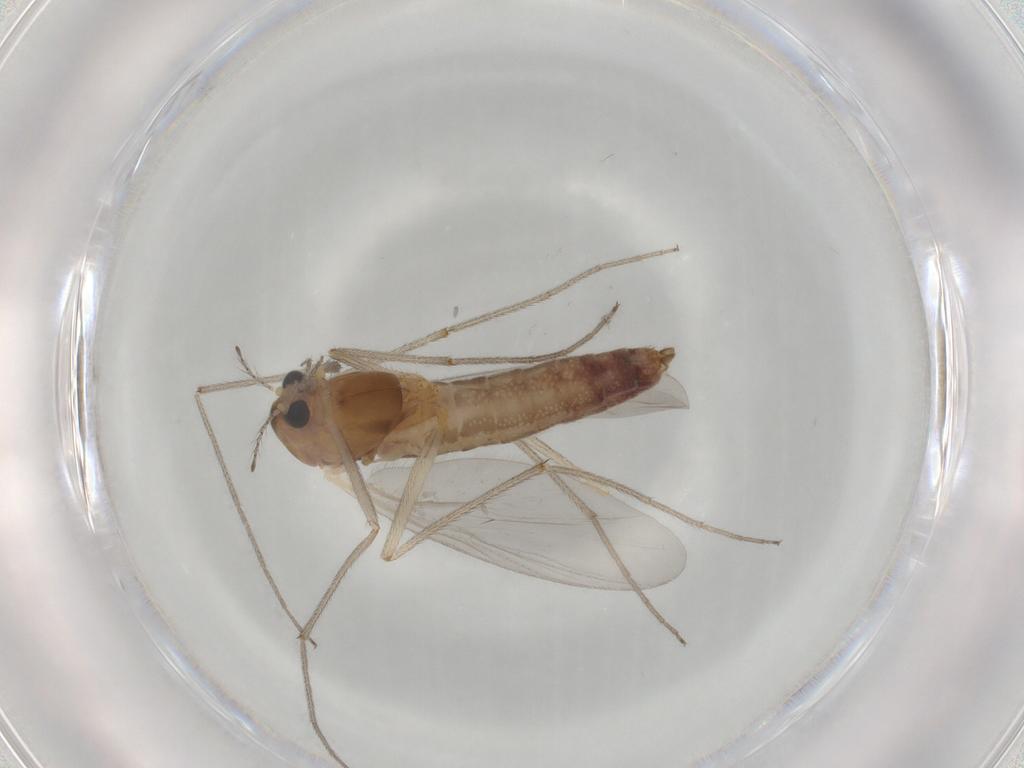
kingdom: Animalia
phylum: Arthropoda
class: Insecta
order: Diptera
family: Chironomidae
